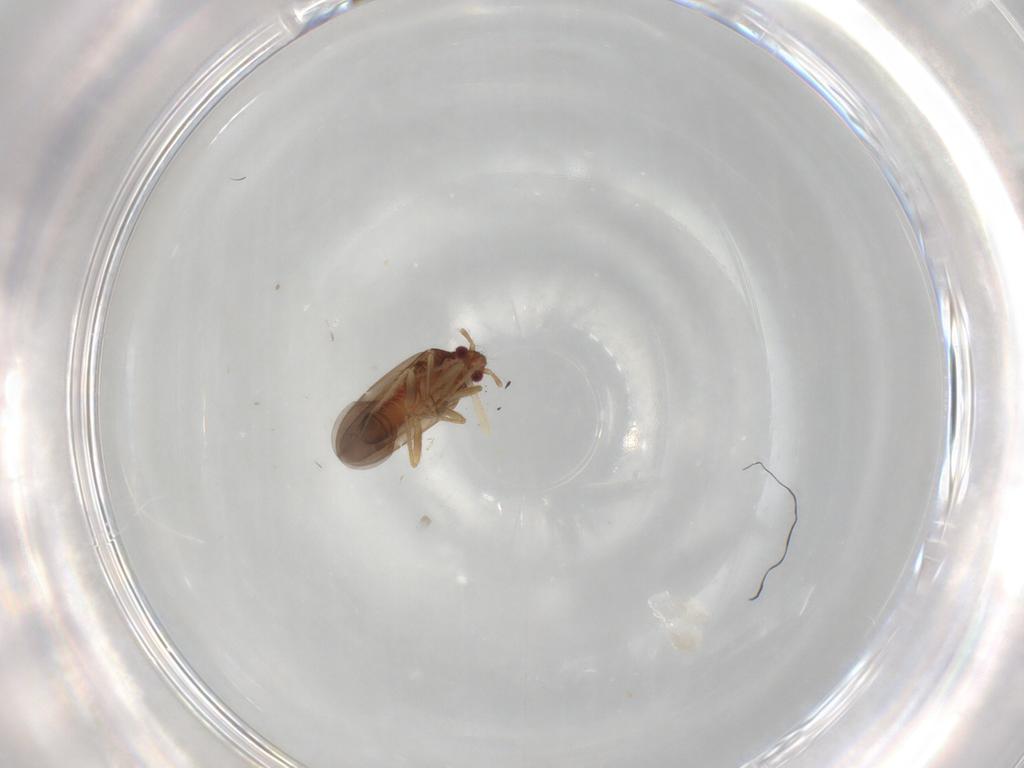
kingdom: Animalia
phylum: Arthropoda
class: Insecta
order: Hemiptera
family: Ceratocombidae
